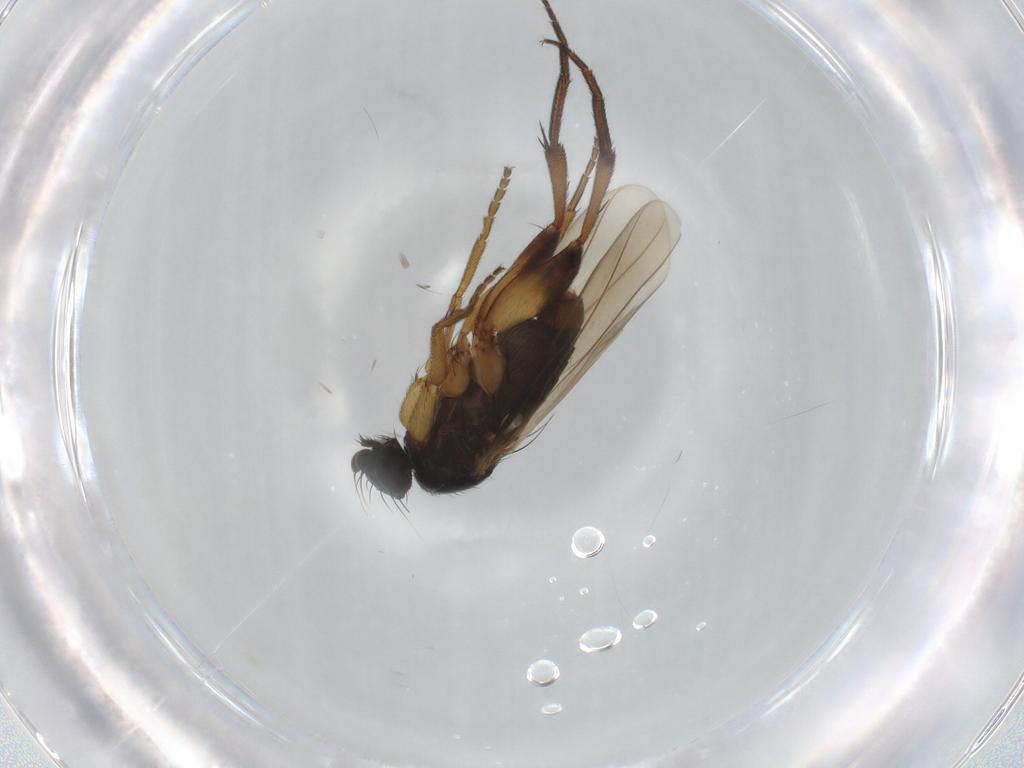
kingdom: Animalia
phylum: Arthropoda
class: Insecta
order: Diptera
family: Phoridae
